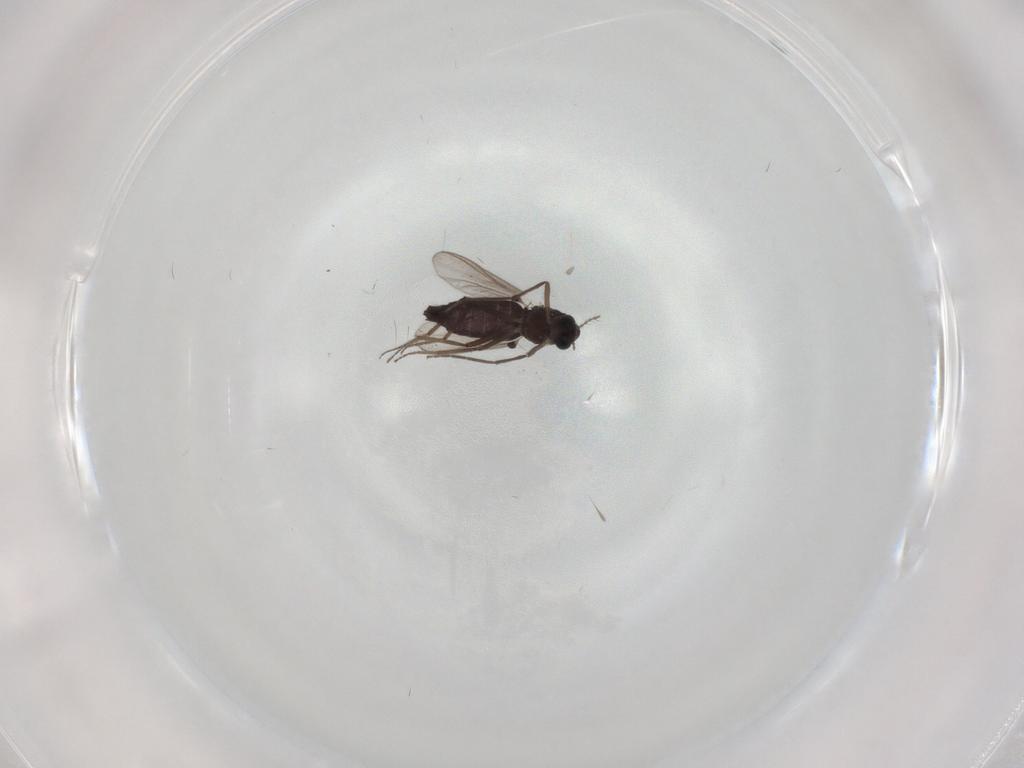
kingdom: Animalia
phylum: Arthropoda
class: Insecta
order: Diptera
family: Chironomidae
